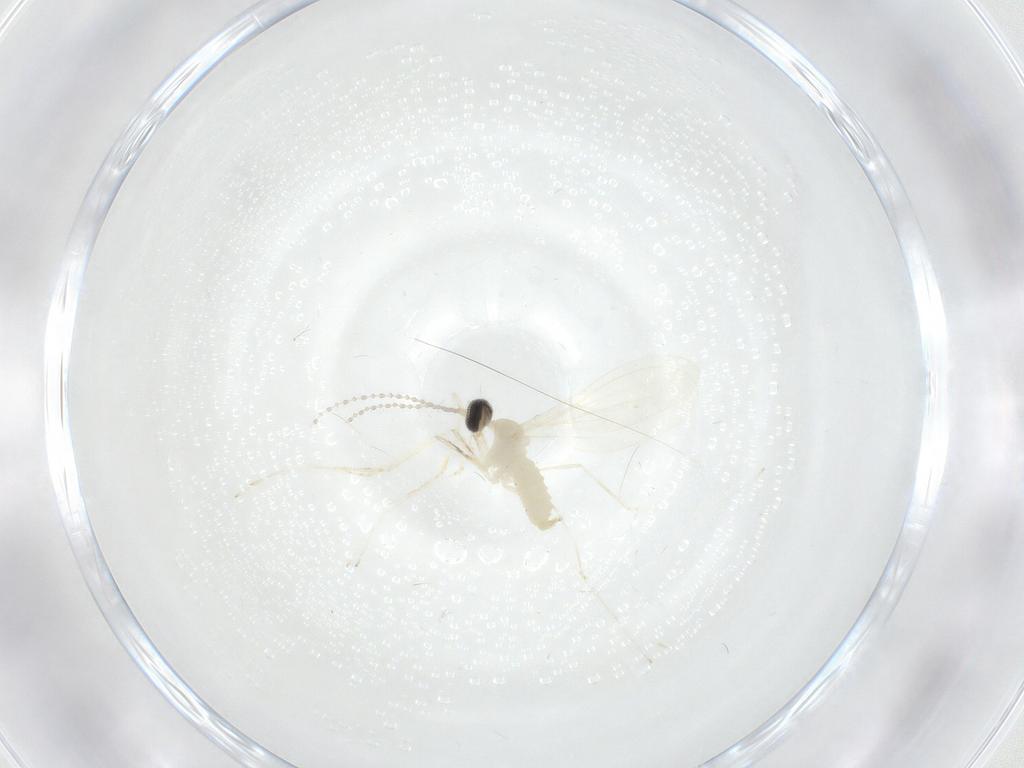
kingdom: Animalia
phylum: Arthropoda
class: Insecta
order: Diptera
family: Cecidomyiidae
